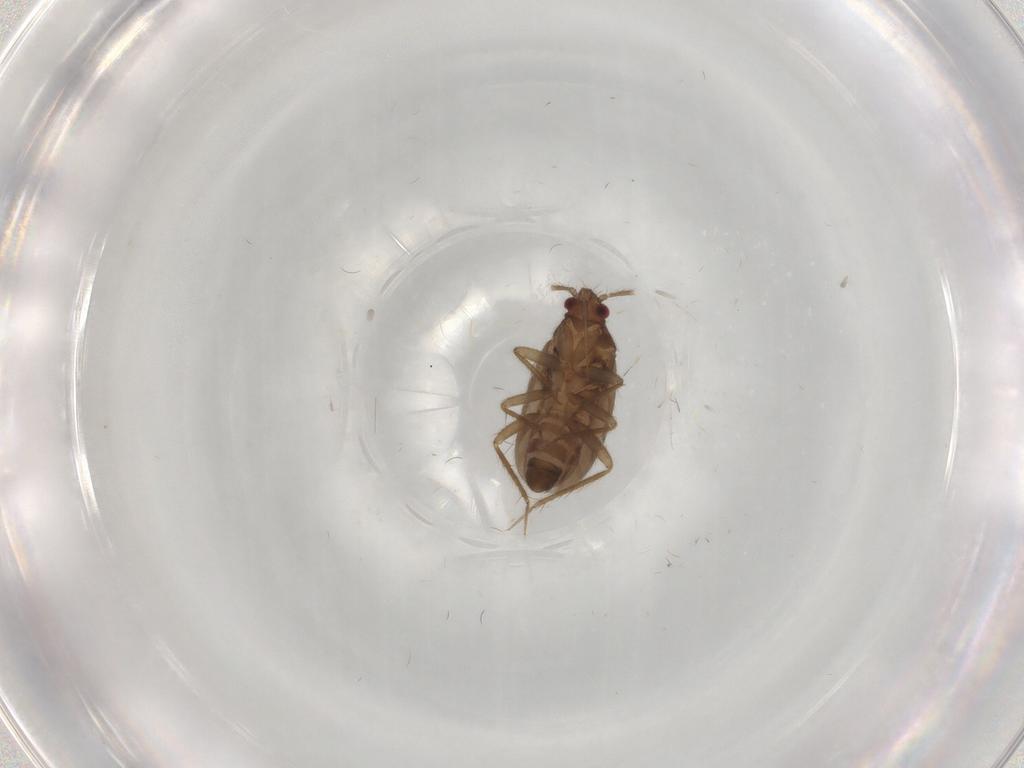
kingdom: Animalia
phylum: Arthropoda
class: Insecta
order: Hemiptera
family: Ceratocombidae
